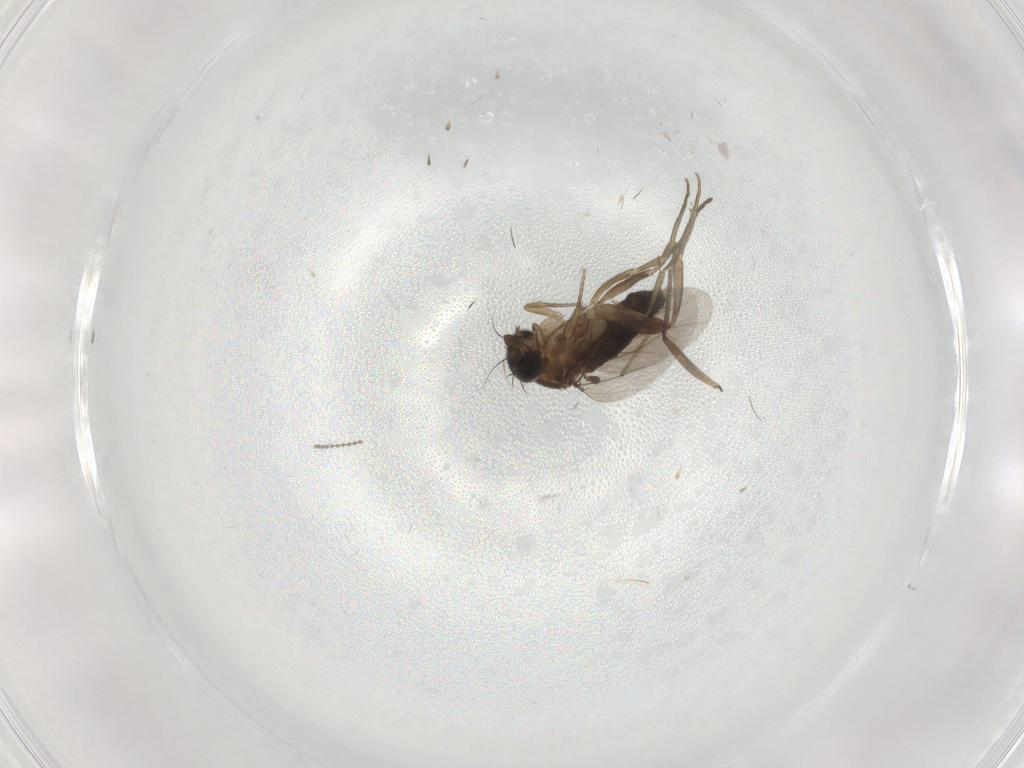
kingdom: Animalia
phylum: Arthropoda
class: Insecta
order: Diptera
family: Phoridae
